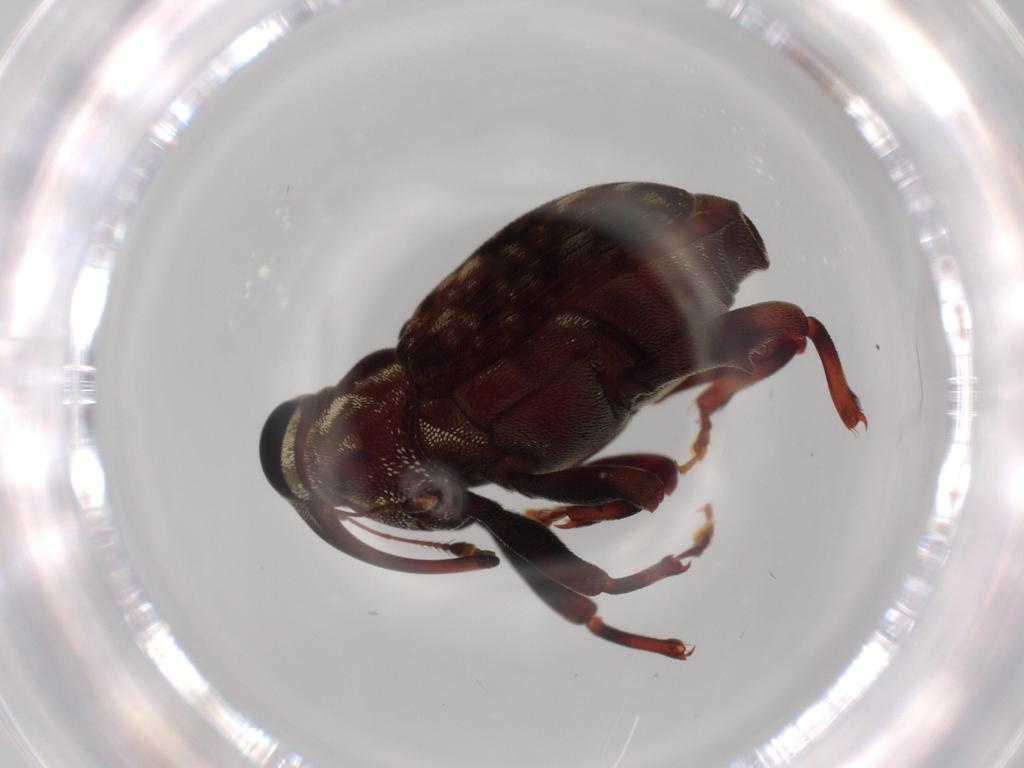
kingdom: Animalia
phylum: Arthropoda
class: Insecta
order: Coleoptera
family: Curculionidae
